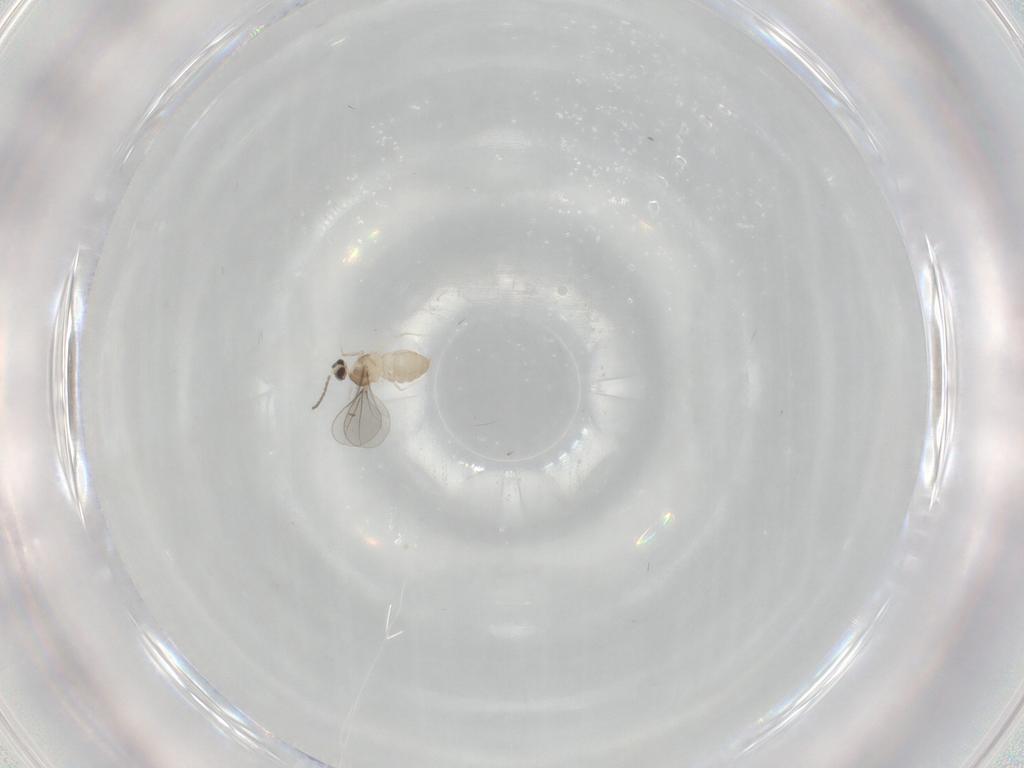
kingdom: Animalia
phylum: Arthropoda
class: Insecta
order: Diptera
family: Cecidomyiidae
